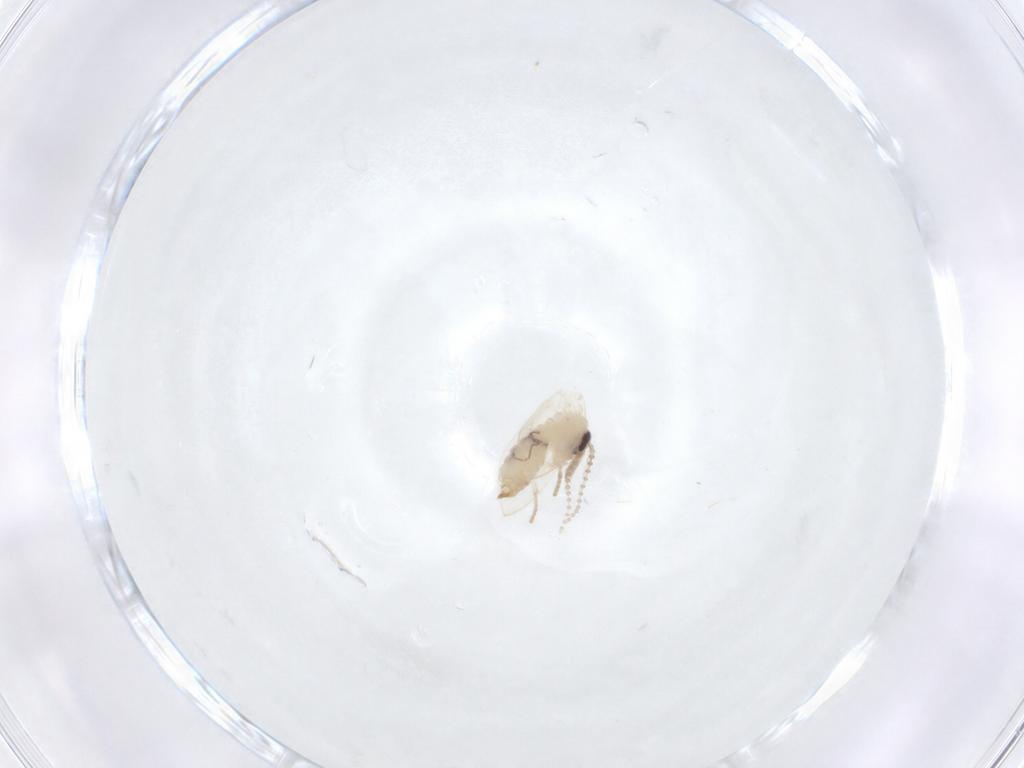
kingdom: Animalia
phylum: Arthropoda
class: Insecta
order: Diptera
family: Psychodidae
